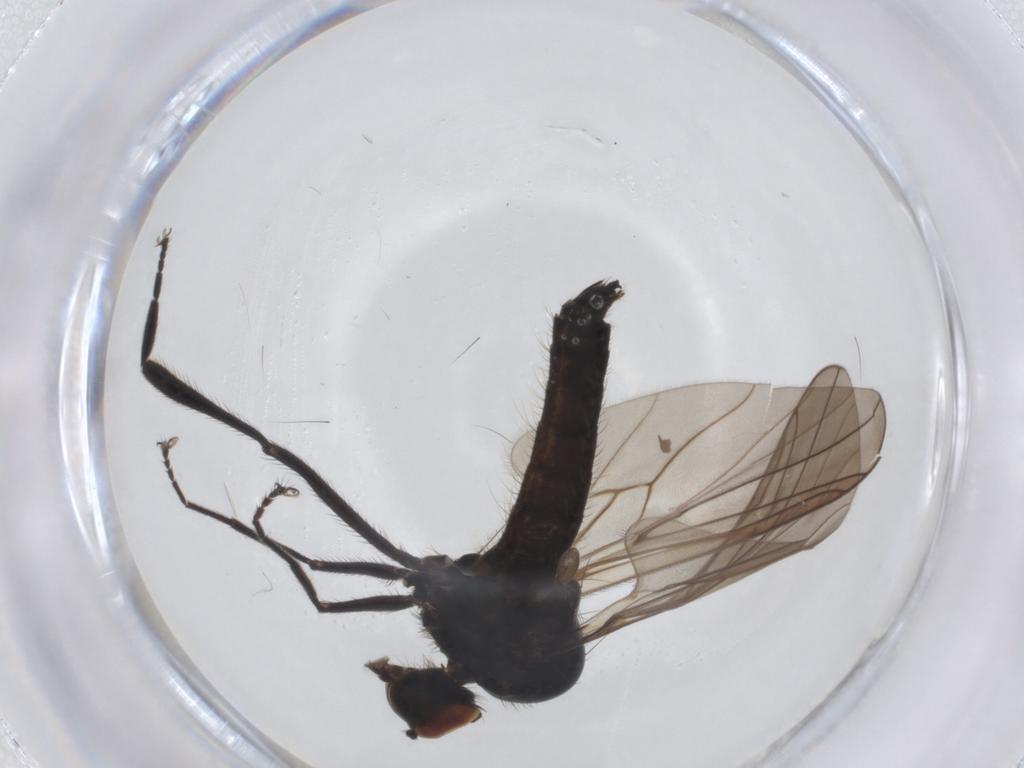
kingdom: Animalia
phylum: Arthropoda
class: Insecta
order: Diptera
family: Hybotidae
